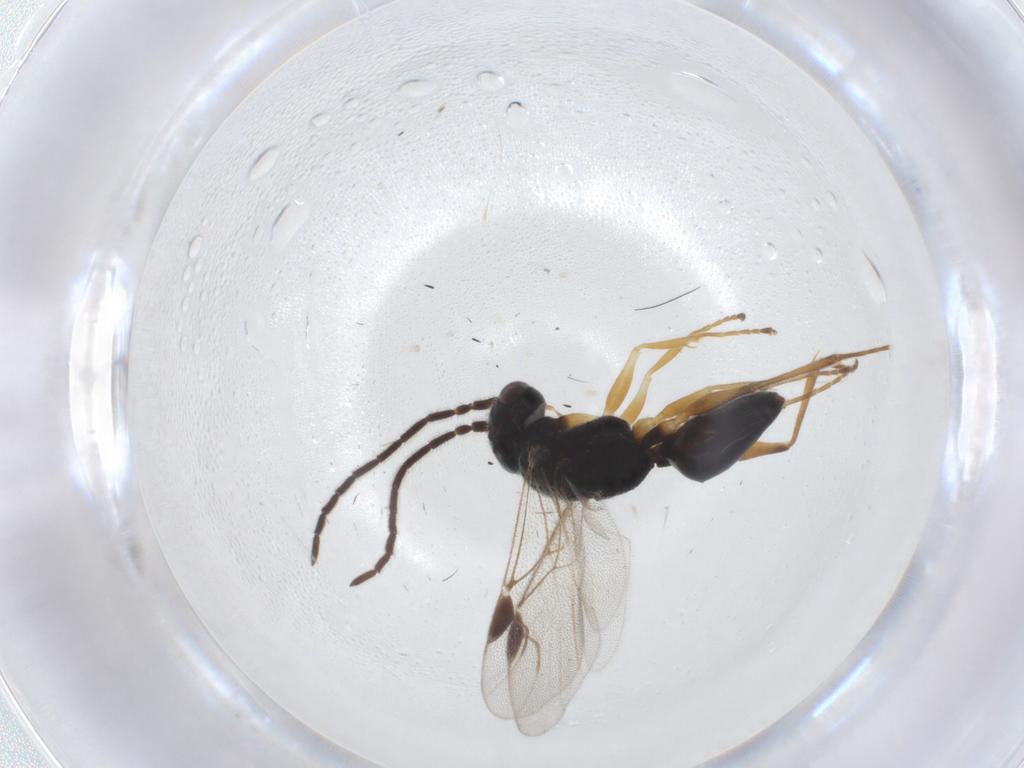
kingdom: Animalia
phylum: Arthropoda
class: Insecta
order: Hymenoptera
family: Dryinidae
